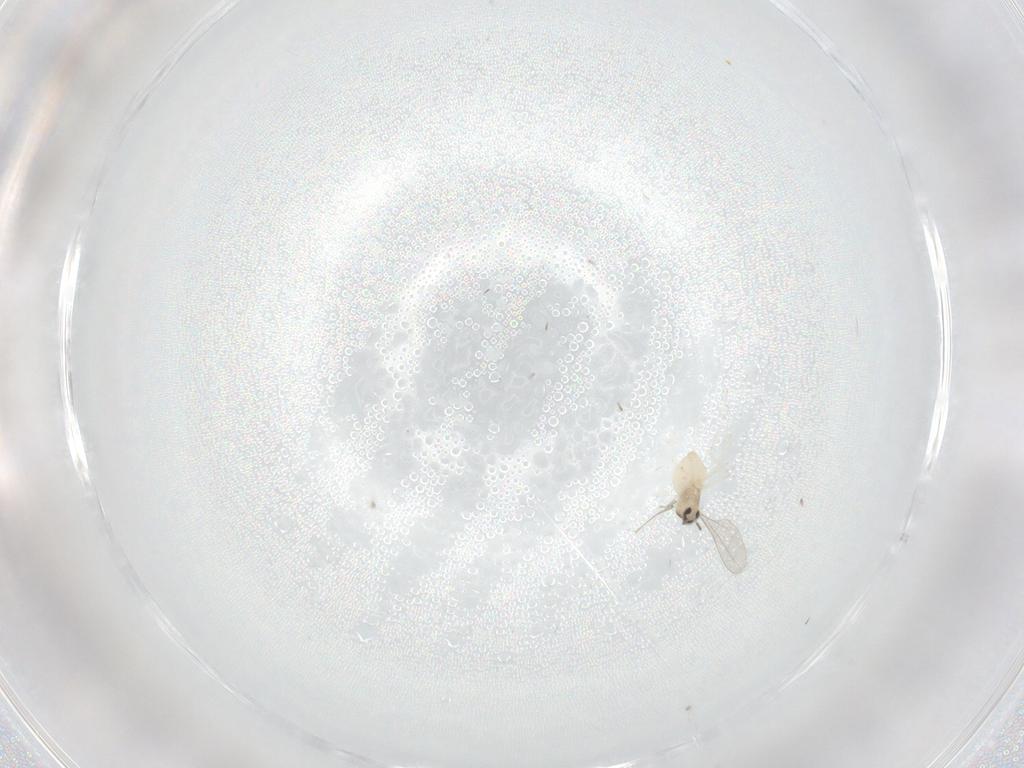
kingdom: Animalia
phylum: Arthropoda
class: Insecta
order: Diptera
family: Cecidomyiidae
